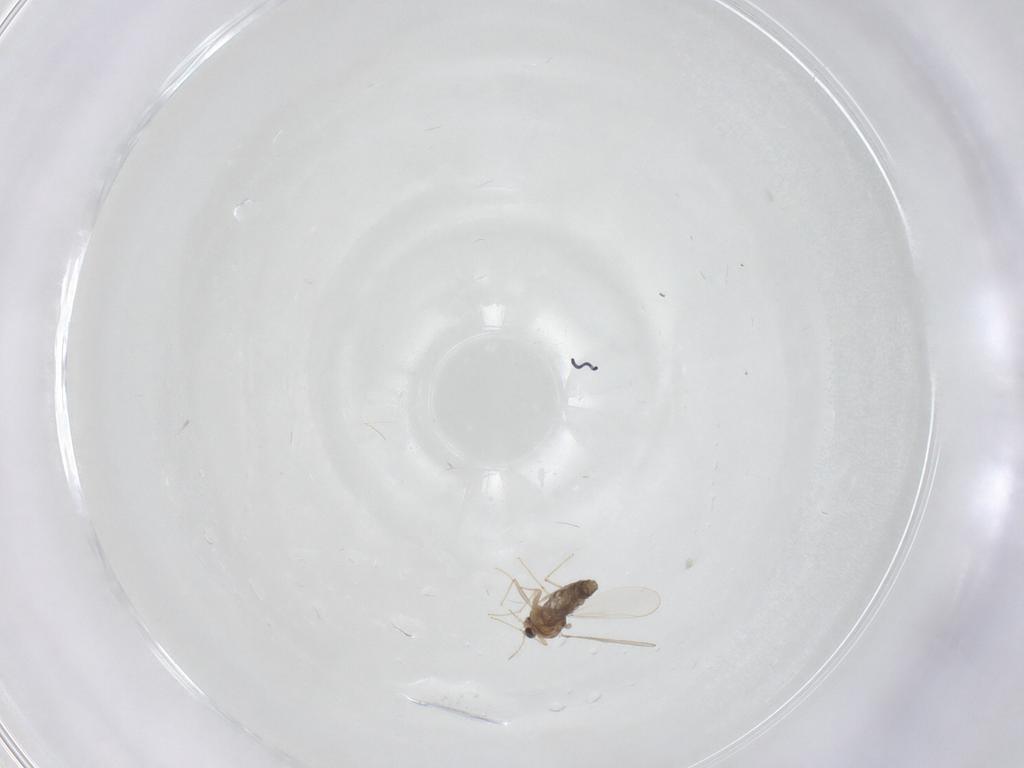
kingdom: Animalia
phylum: Arthropoda
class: Insecta
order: Diptera
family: Chironomidae
